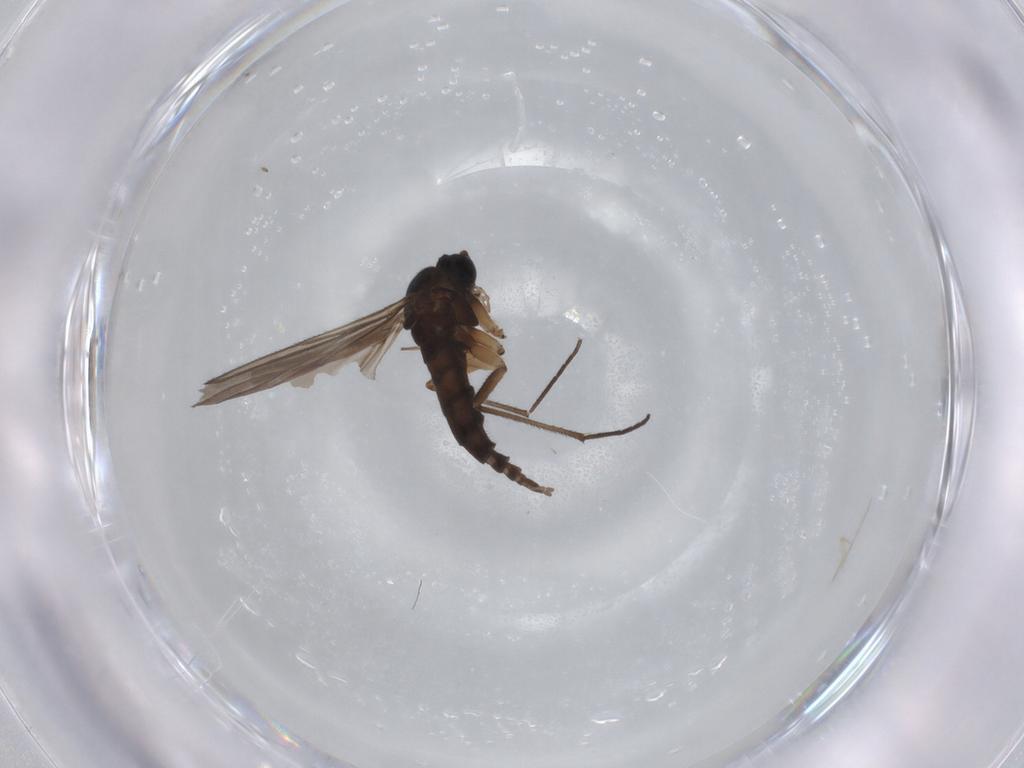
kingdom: Animalia
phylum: Arthropoda
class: Insecta
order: Diptera
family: Sciaridae
